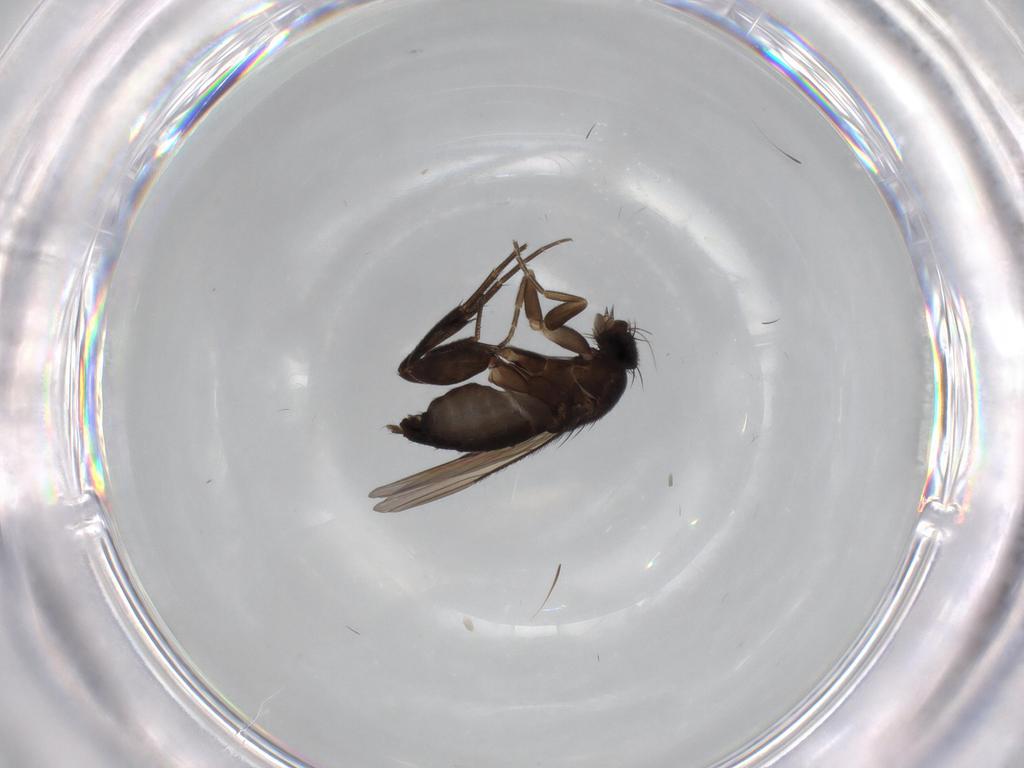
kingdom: Animalia
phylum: Arthropoda
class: Insecta
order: Diptera
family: Phoridae
